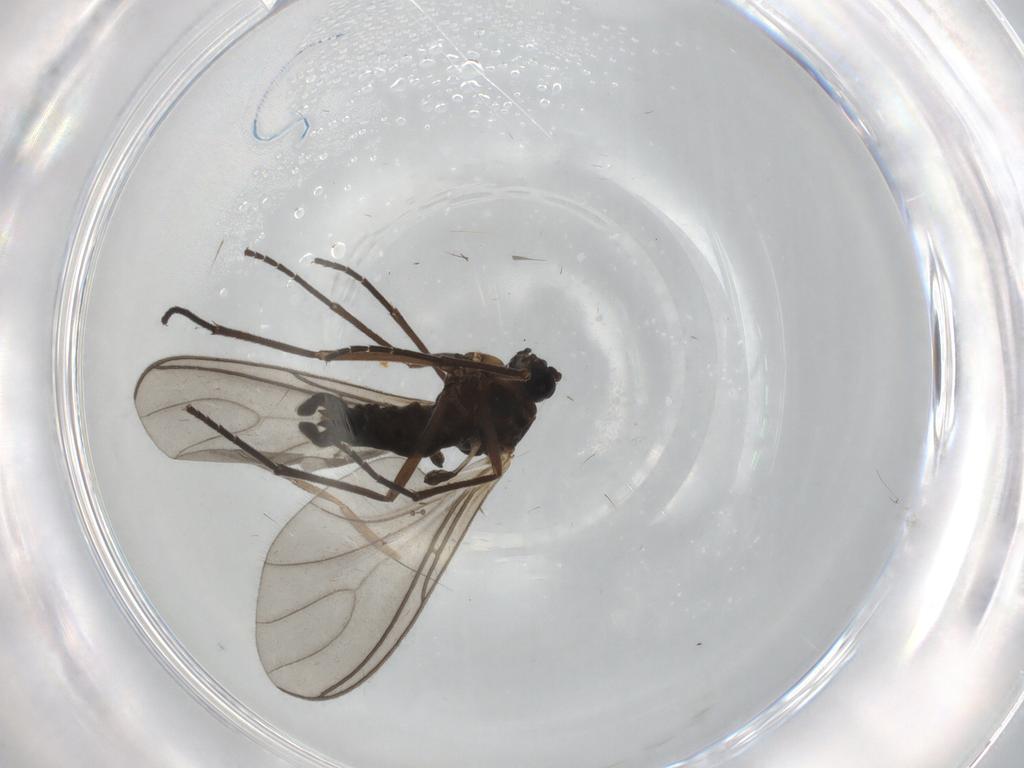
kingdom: Animalia
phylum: Arthropoda
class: Insecta
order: Diptera
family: Sciaridae
